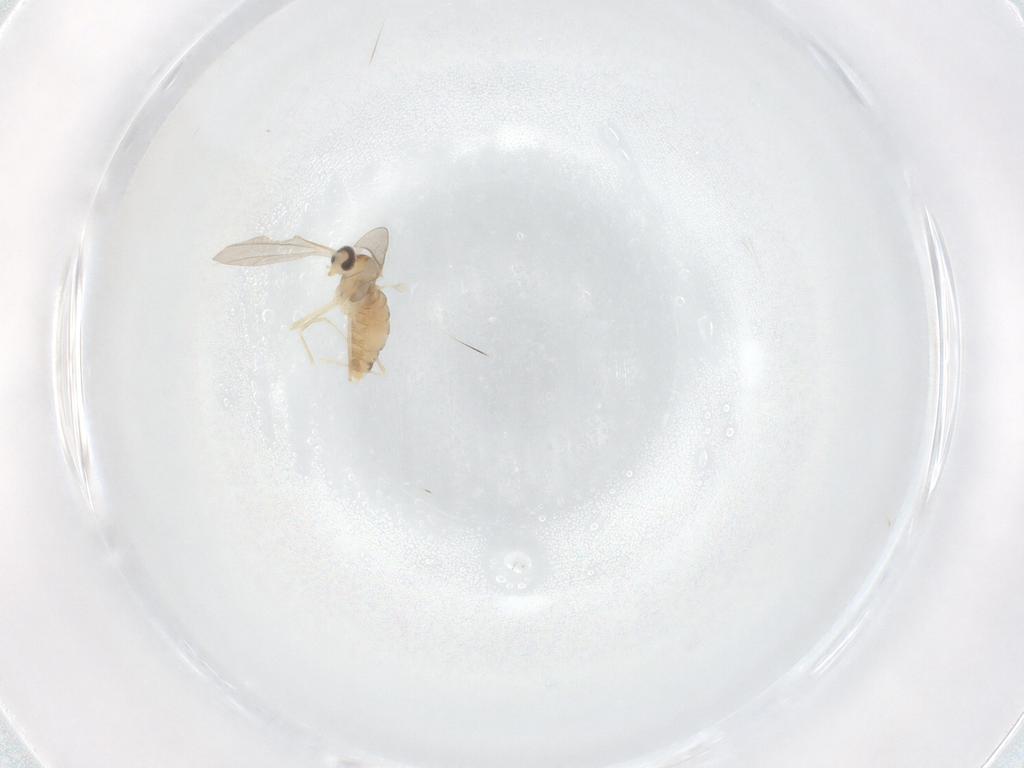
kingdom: Animalia
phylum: Arthropoda
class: Insecta
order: Diptera
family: Cecidomyiidae
